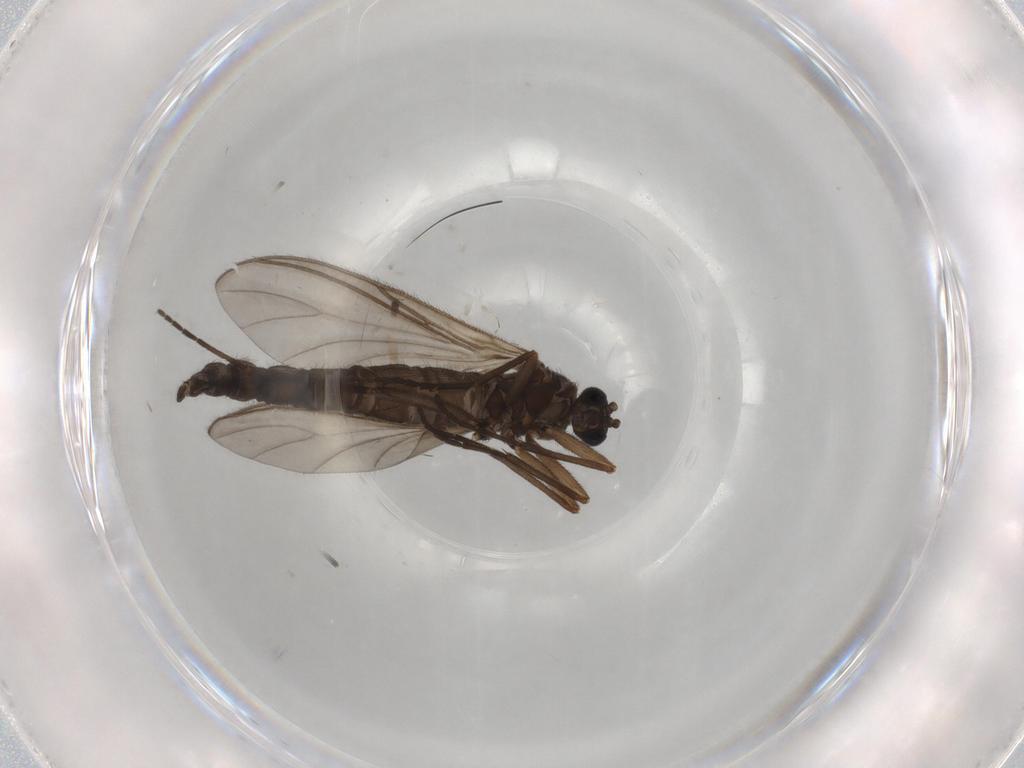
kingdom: Animalia
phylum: Arthropoda
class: Insecta
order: Diptera
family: Sciaridae
